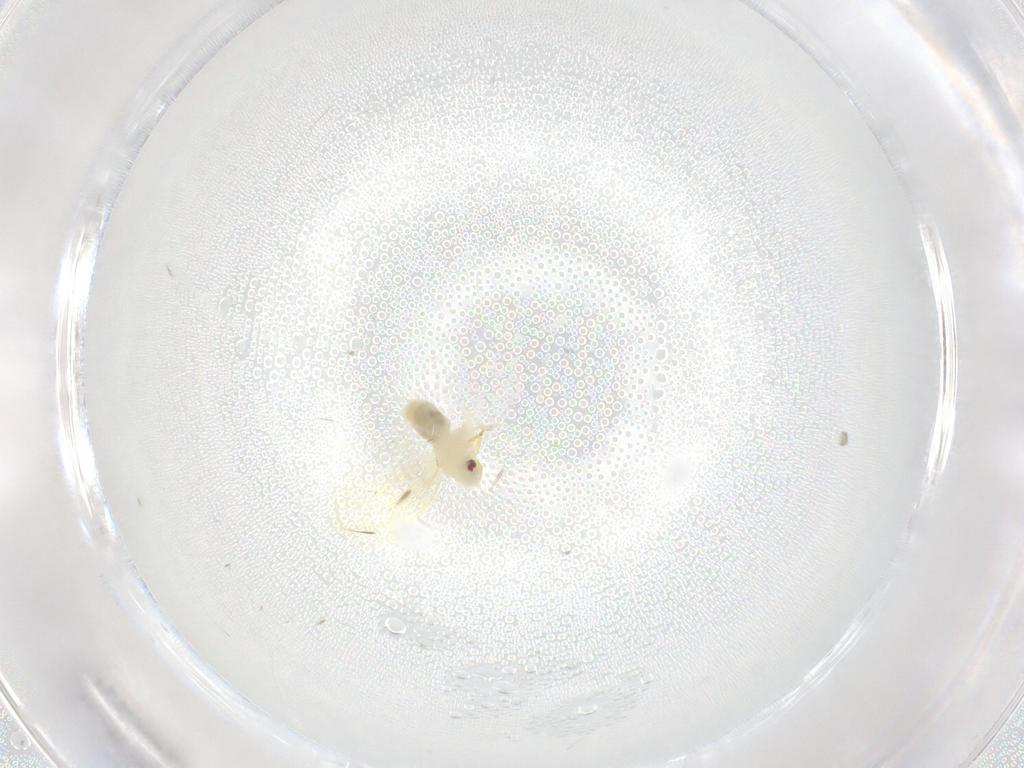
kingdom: Animalia
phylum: Arthropoda
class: Insecta
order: Hemiptera
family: Aleyrodidae
